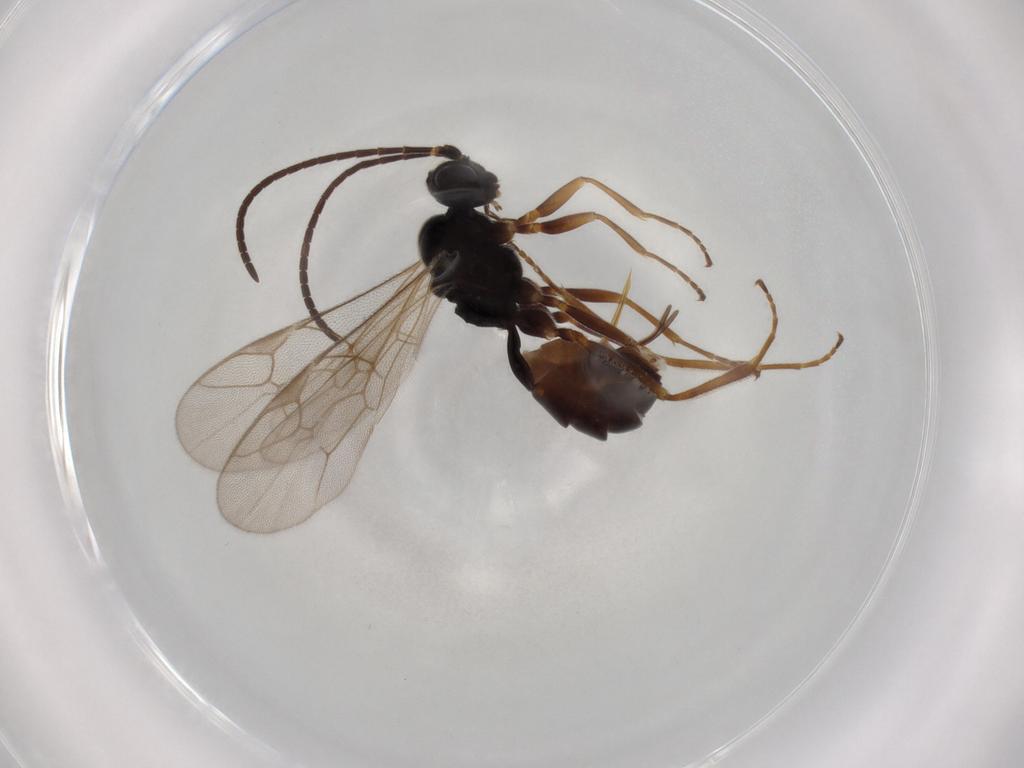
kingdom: Animalia
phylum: Arthropoda
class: Insecta
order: Hymenoptera
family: Ichneumonidae
